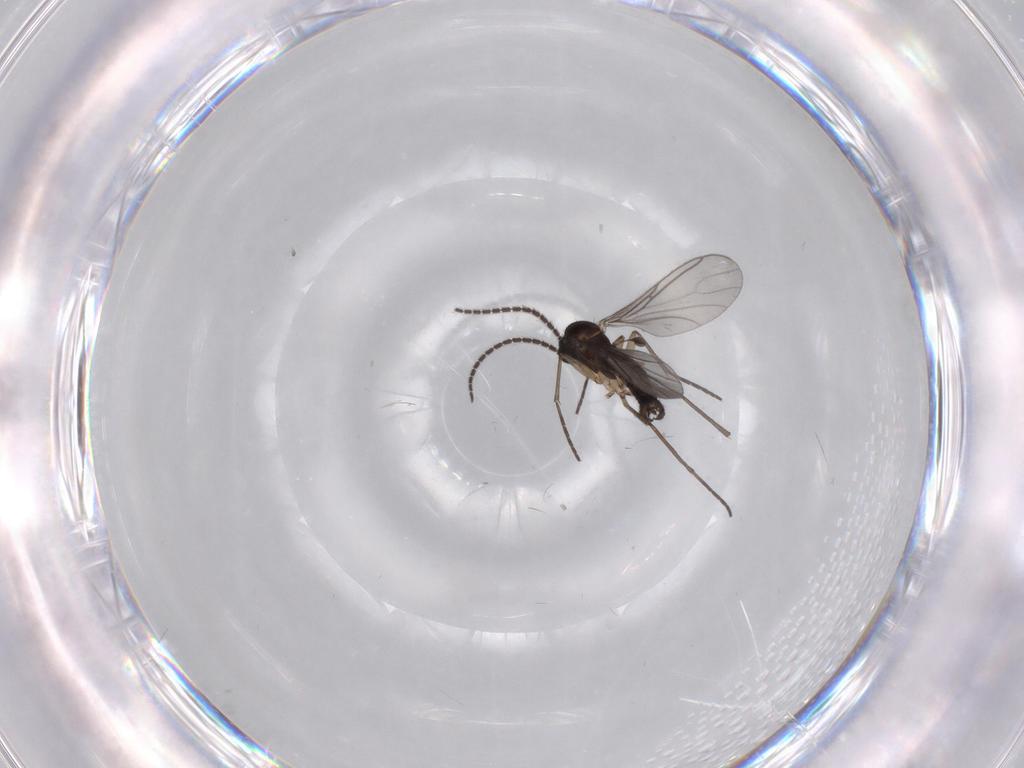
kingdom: Animalia
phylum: Arthropoda
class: Insecta
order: Diptera
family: Sciaridae
